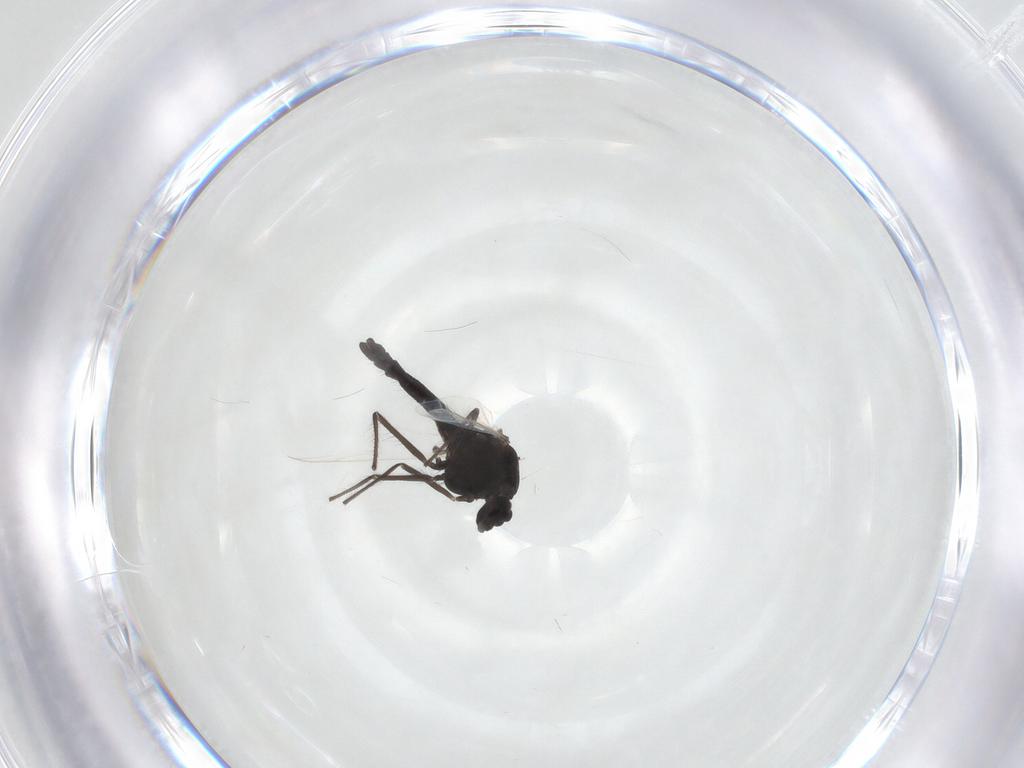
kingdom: Animalia
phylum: Arthropoda
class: Insecta
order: Diptera
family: Chironomidae
